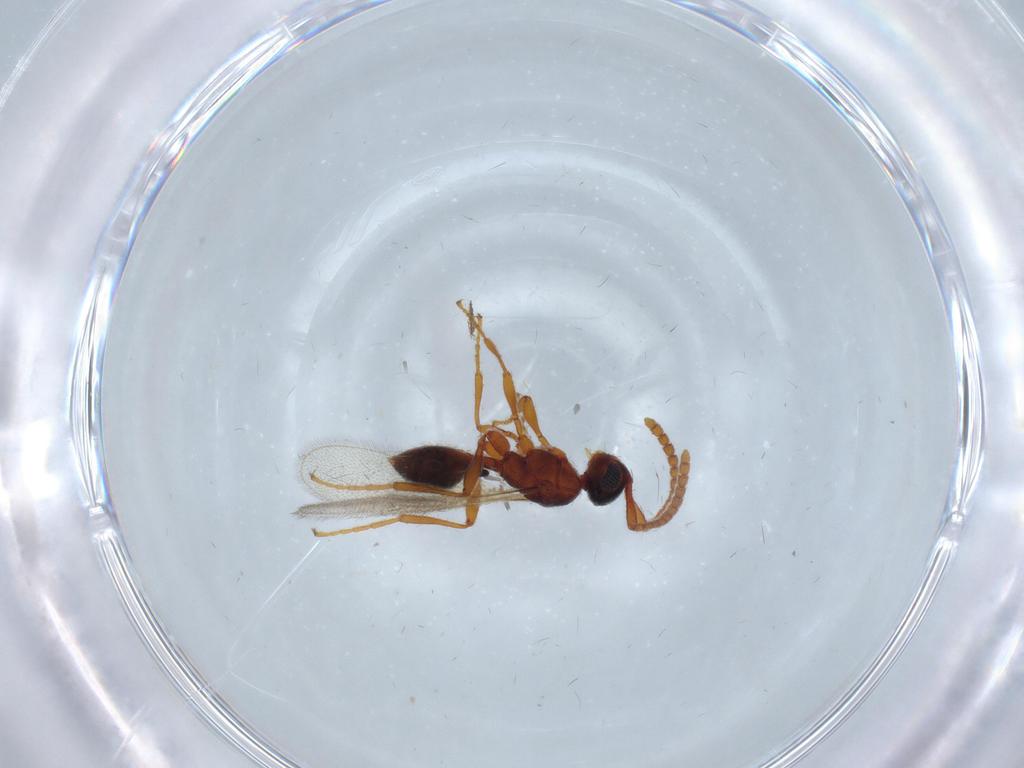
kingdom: Animalia
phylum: Arthropoda
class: Insecta
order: Hymenoptera
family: Diapriidae
